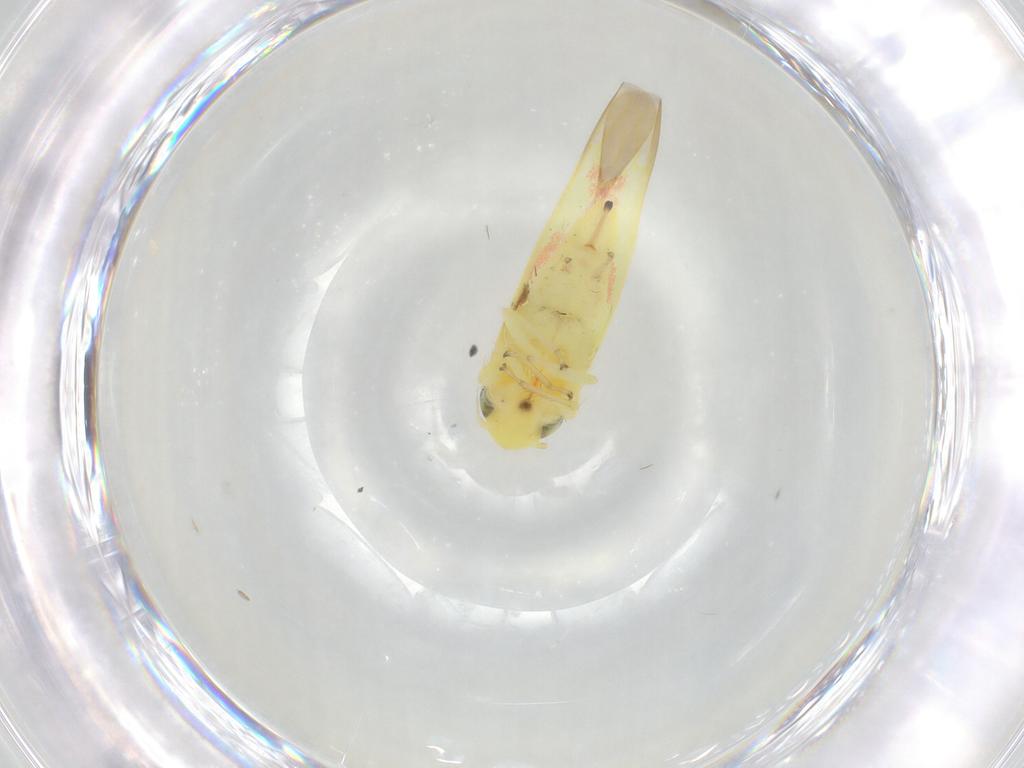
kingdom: Animalia
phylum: Arthropoda
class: Insecta
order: Hemiptera
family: Cicadellidae
